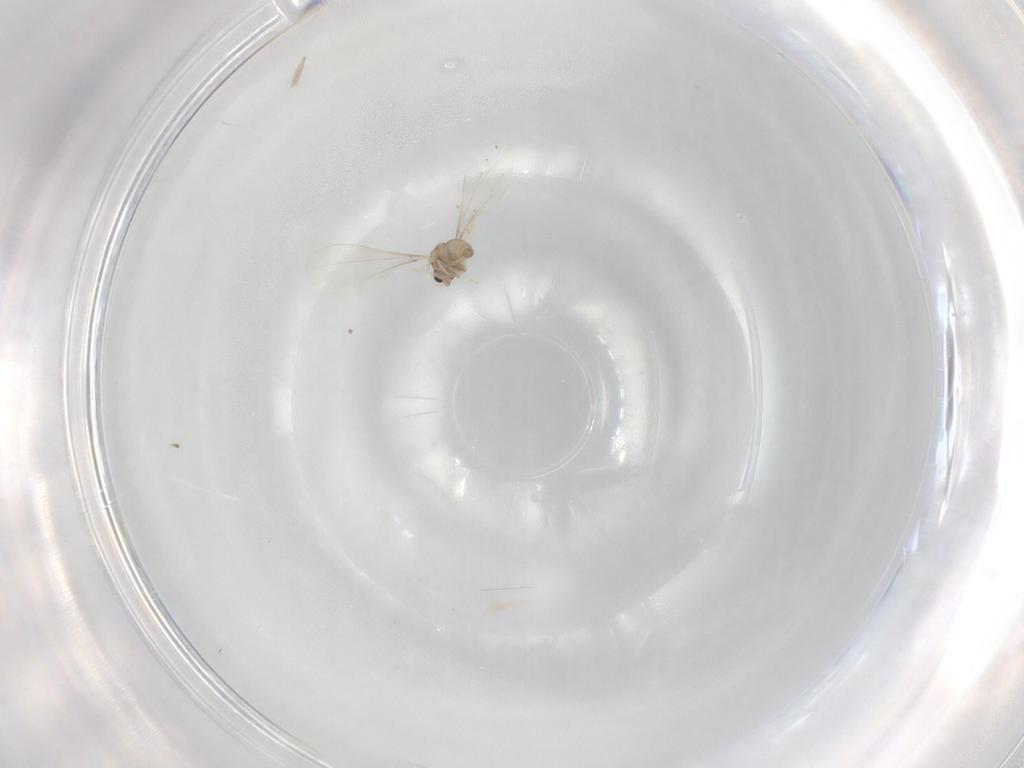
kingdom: Animalia
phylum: Arthropoda
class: Insecta
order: Diptera
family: Cecidomyiidae
